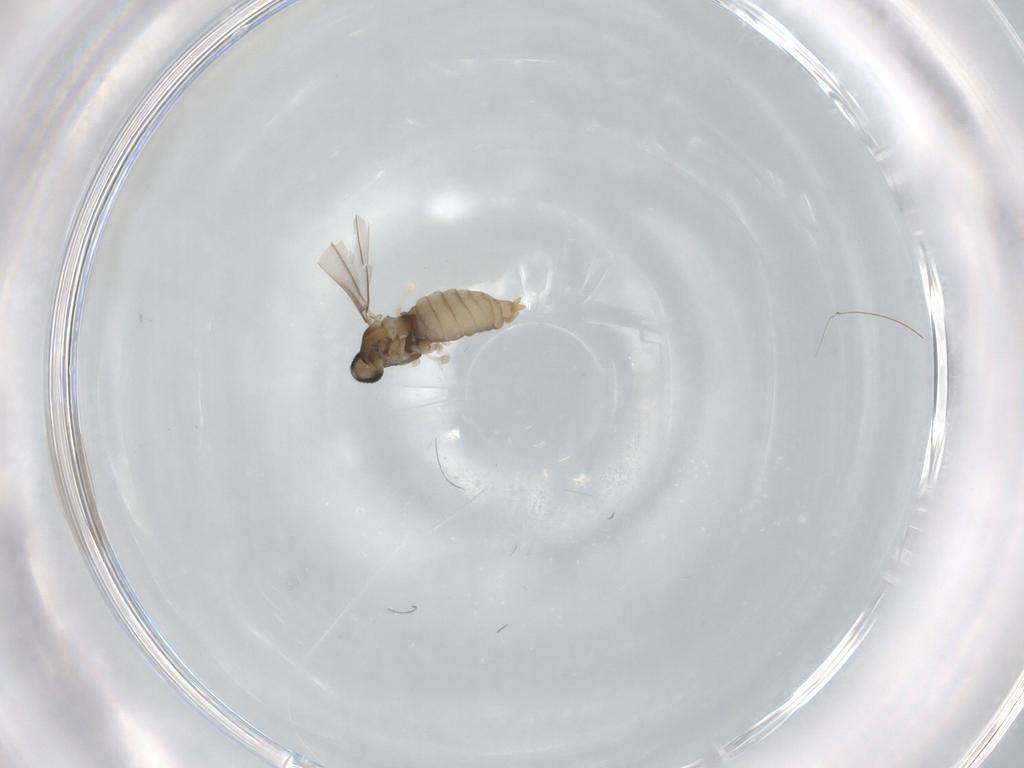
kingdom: Animalia
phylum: Arthropoda
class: Insecta
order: Diptera
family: Cecidomyiidae
